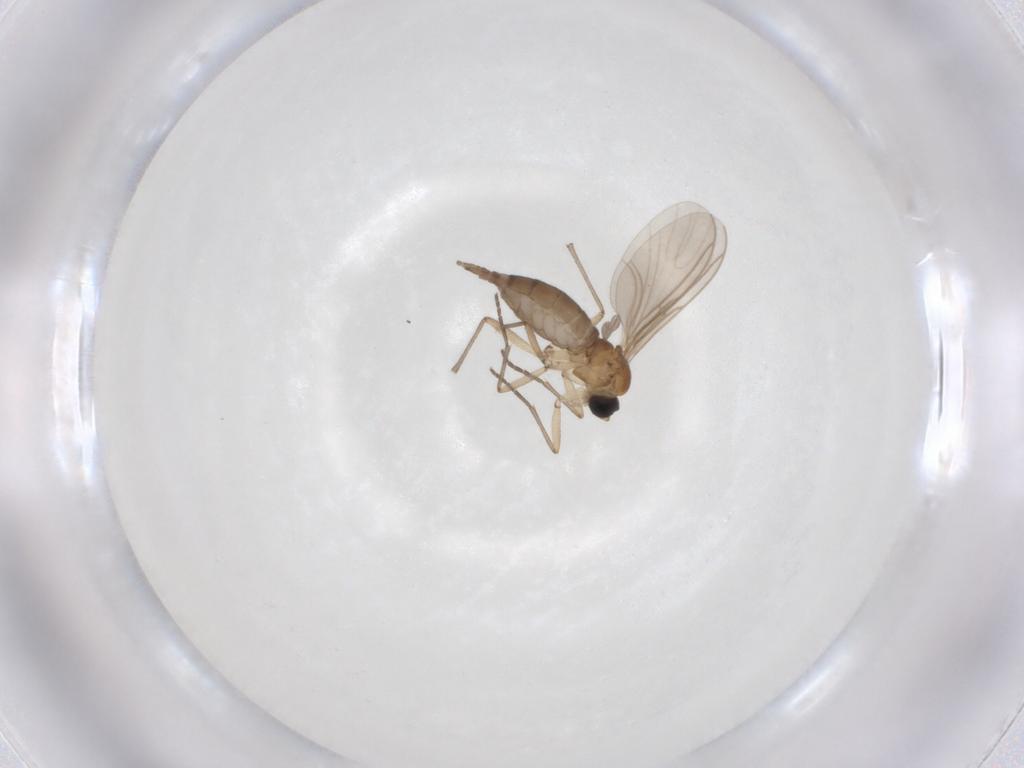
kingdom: Animalia
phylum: Arthropoda
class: Insecta
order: Diptera
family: Sciaridae
